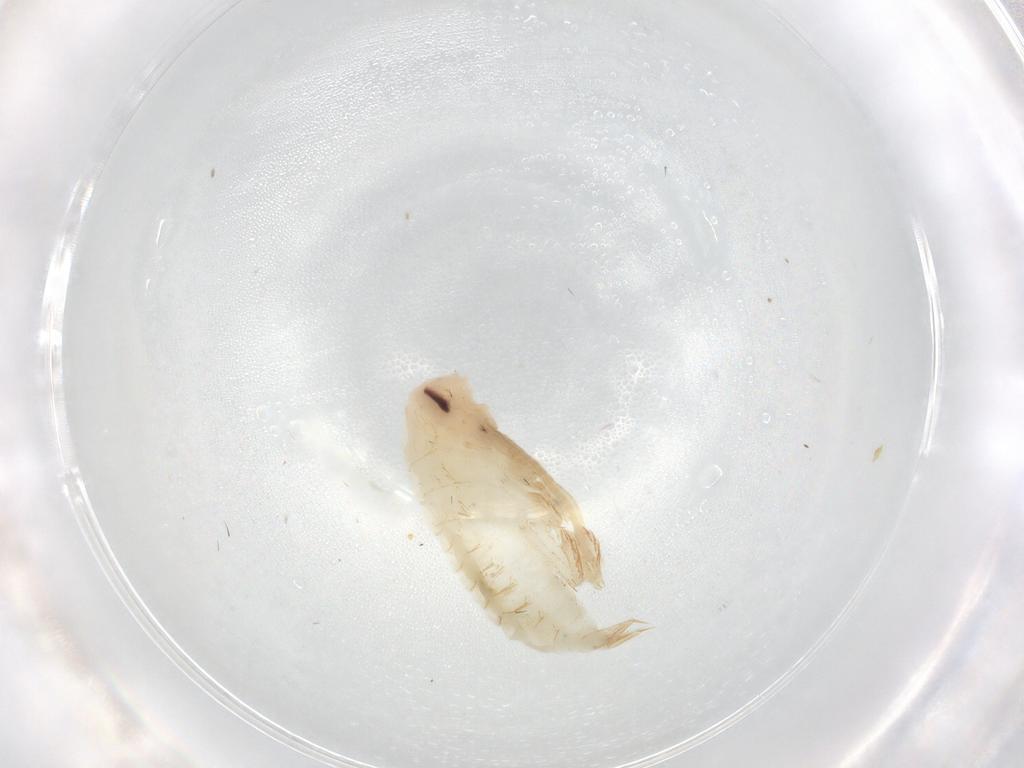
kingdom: Animalia
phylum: Arthropoda
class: Insecta
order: Blattodea
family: Ectobiidae
